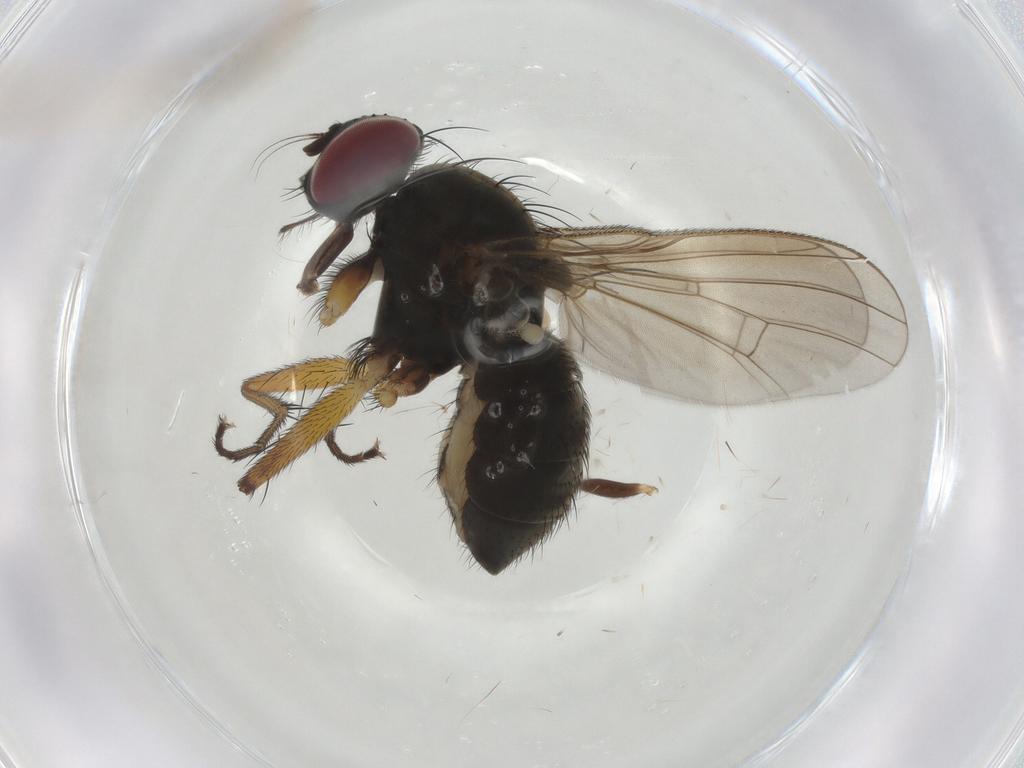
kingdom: Animalia
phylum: Arthropoda
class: Insecta
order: Diptera
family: Muscidae
